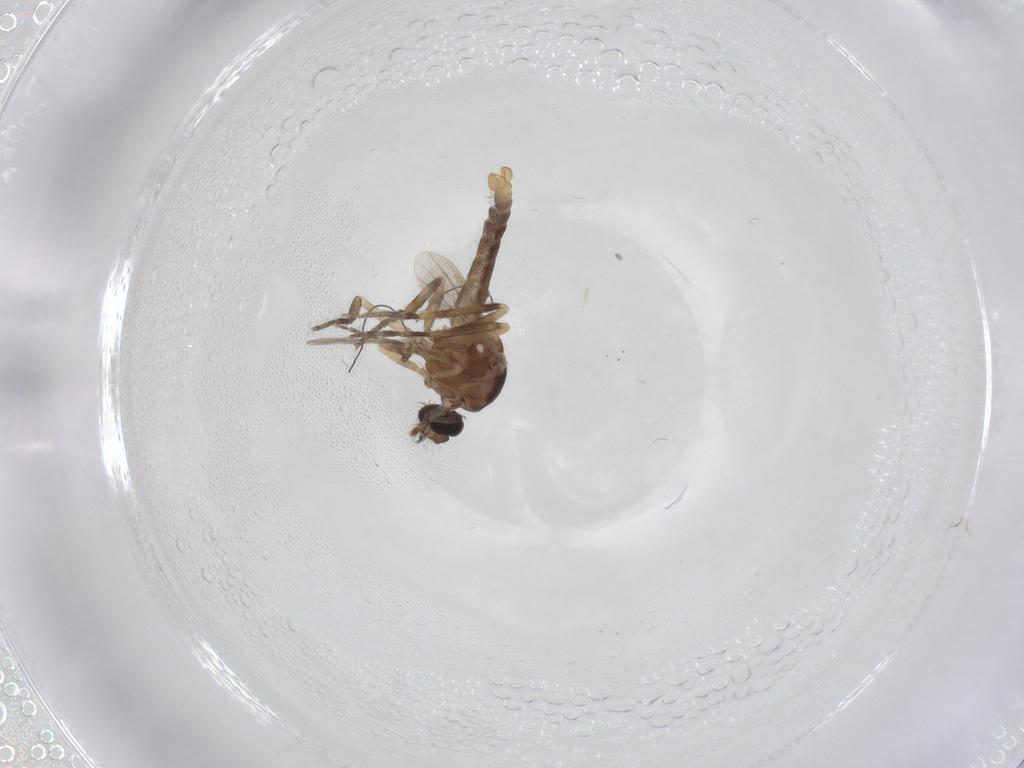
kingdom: Animalia
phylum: Arthropoda
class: Insecta
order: Diptera
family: Ceratopogonidae
